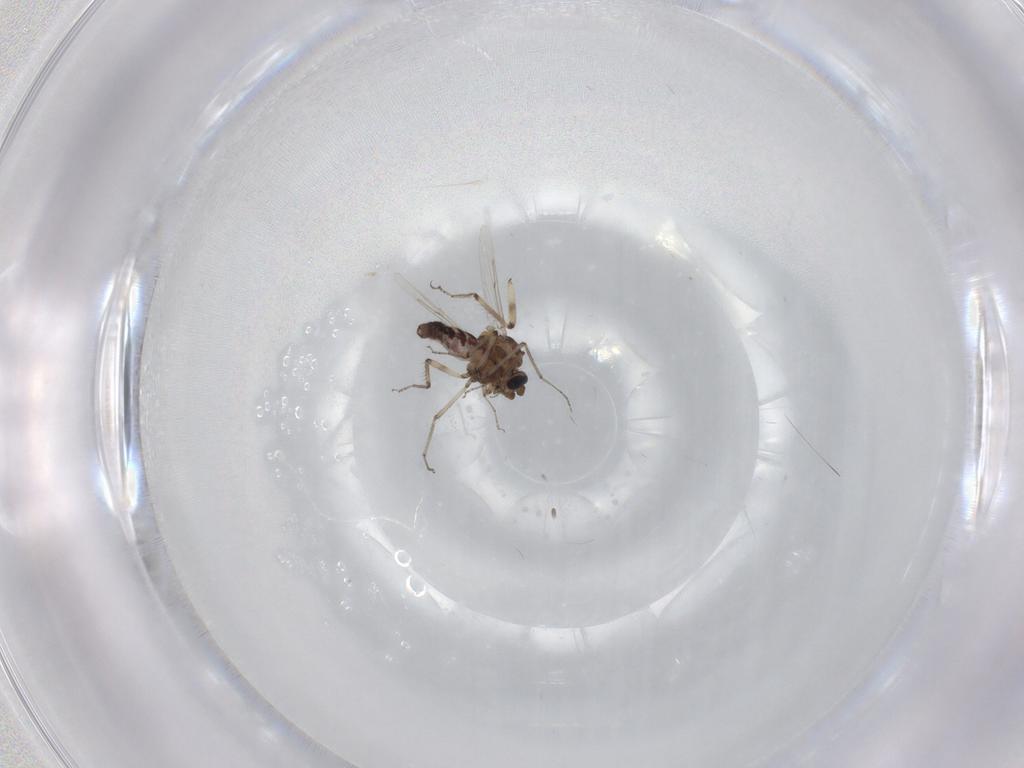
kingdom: Animalia
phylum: Arthropoda
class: Insecta
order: Diptera
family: Ceratopogonidae
